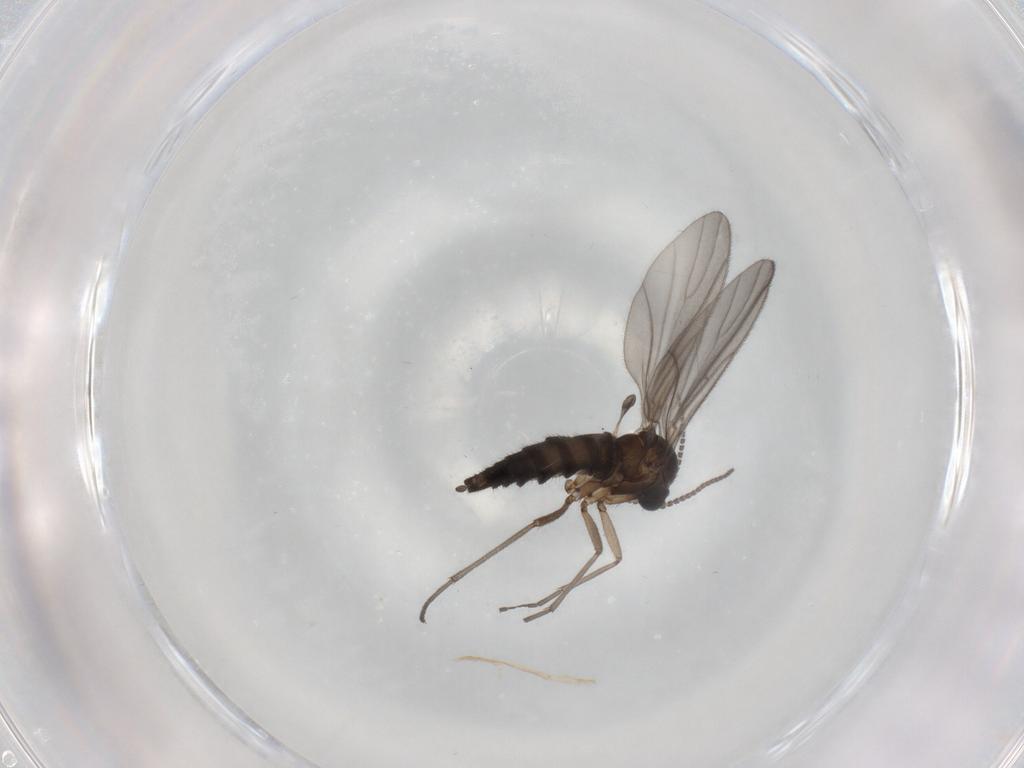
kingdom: Animalia
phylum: Arthropoda
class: Insecta
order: Diptera
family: Sciaridae
